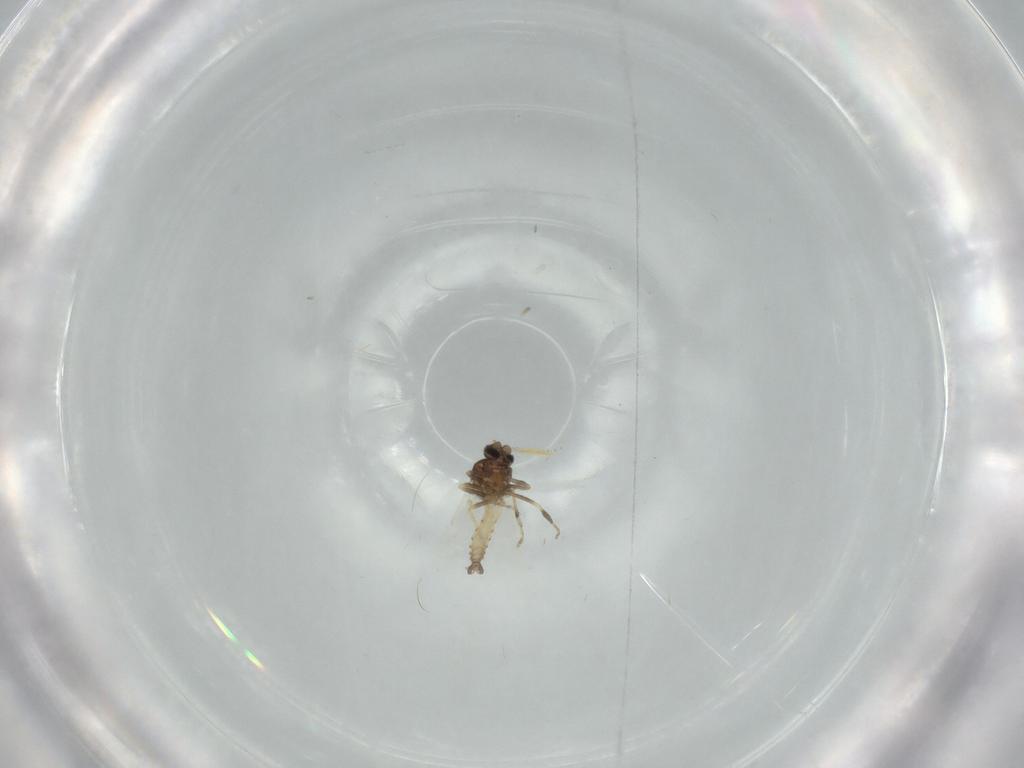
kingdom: Animalia
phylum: Arthropoda
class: Insecta
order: Diptera
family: Ceratopogonidae
